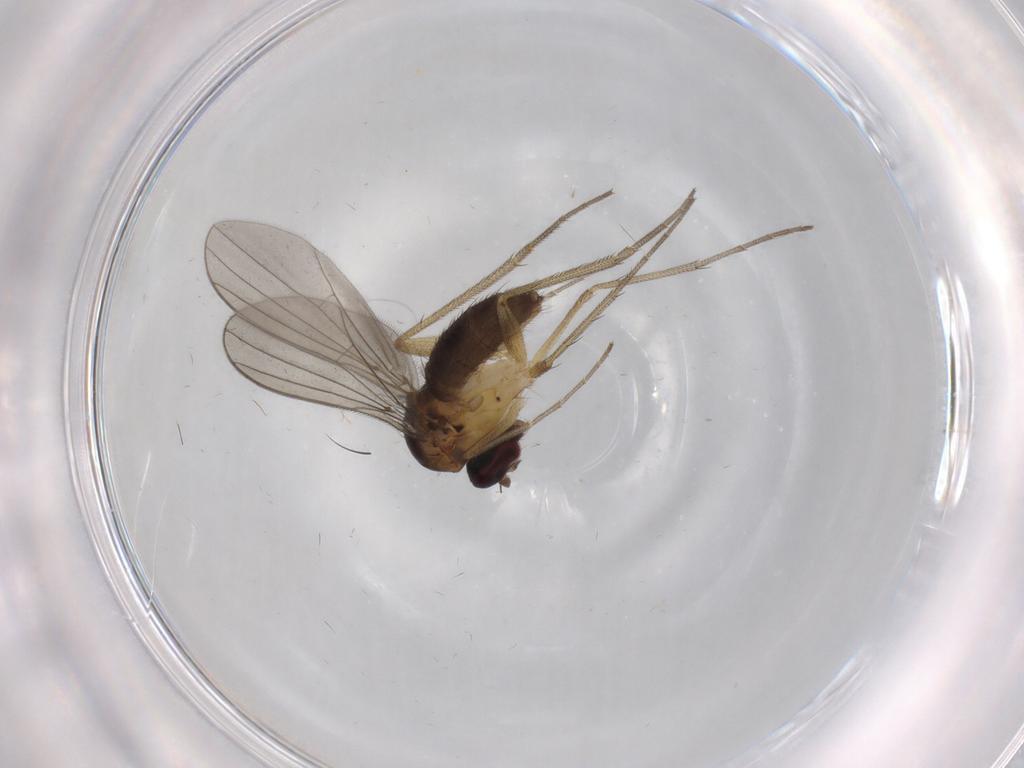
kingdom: Animalia
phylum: Arthropoda
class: Insecta
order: Diptera
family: Dolichopodidae
